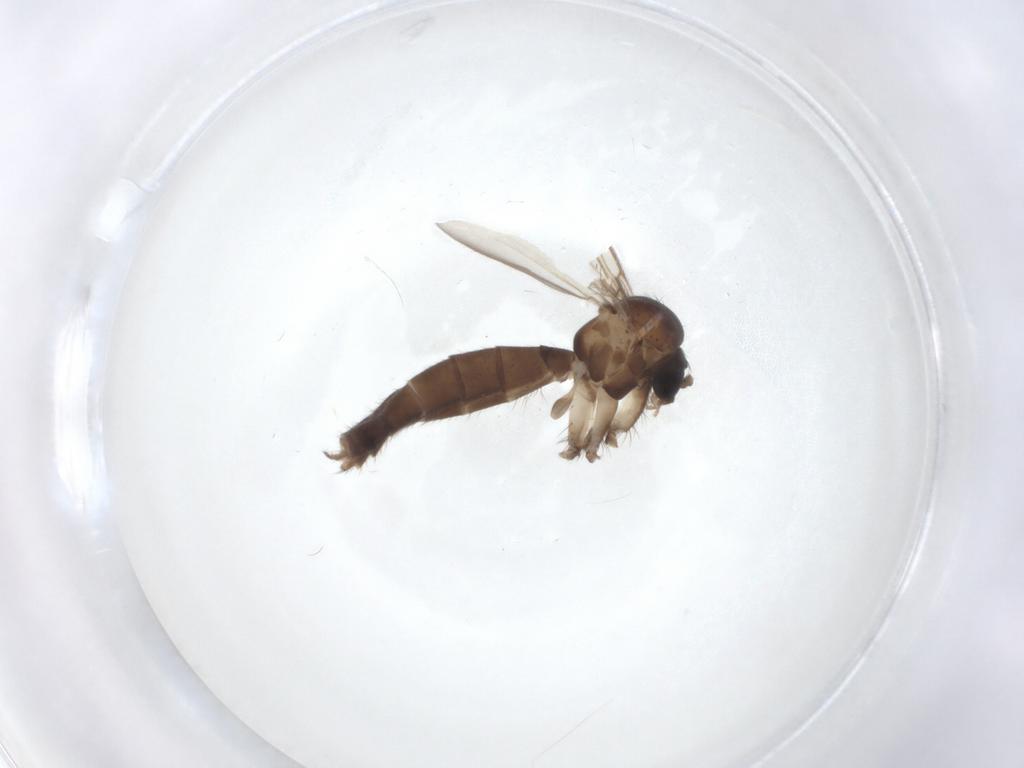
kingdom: Animalia
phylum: Arthropoda
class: Insecta
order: Diptera
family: Mycetophilidae
